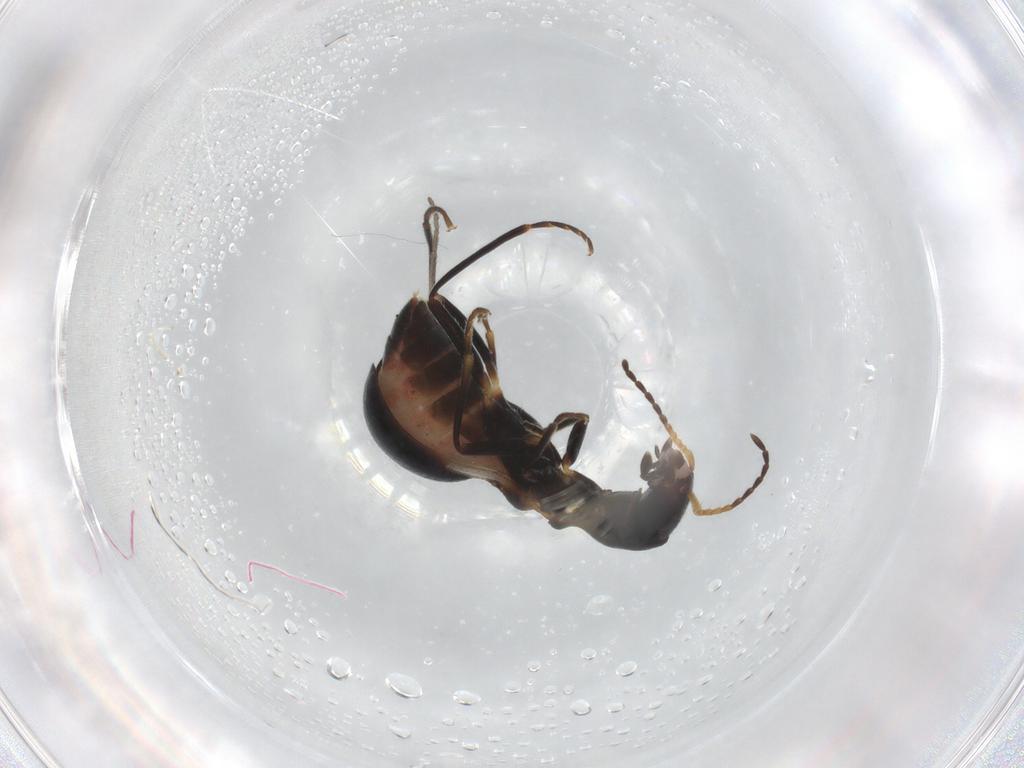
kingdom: Animalia
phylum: Arthropoda
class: Insecta
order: Coleoptera
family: Melyridae
